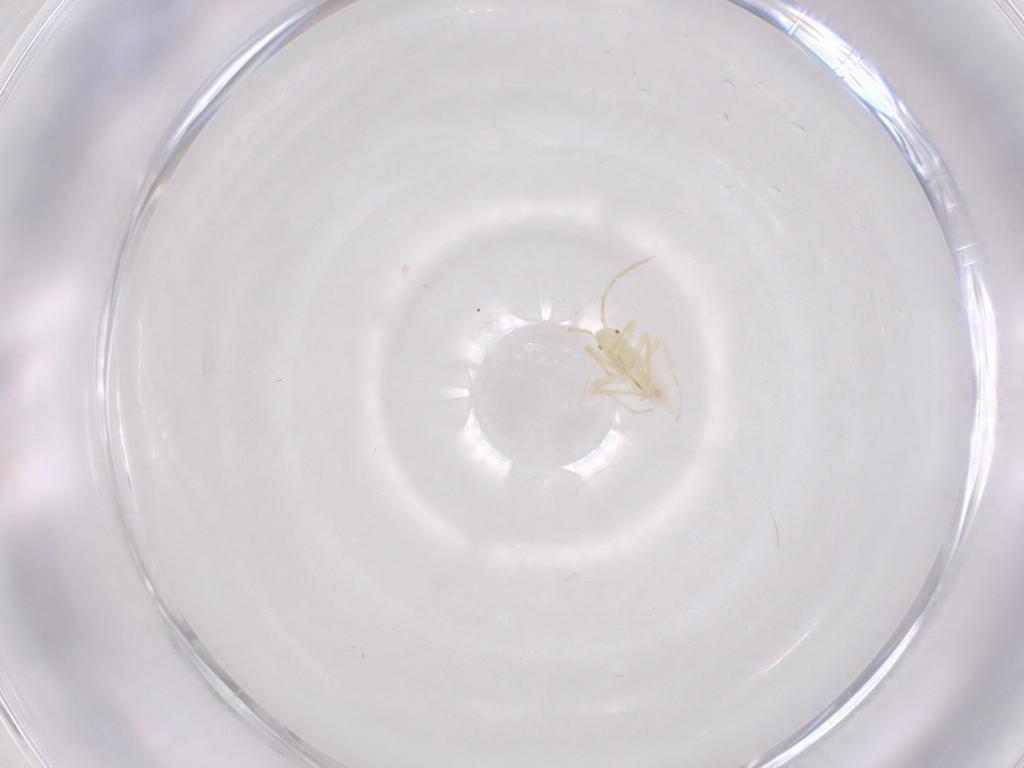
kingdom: Animalia
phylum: Arthropoda
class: Insecta
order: Hemiptera
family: Miridae
